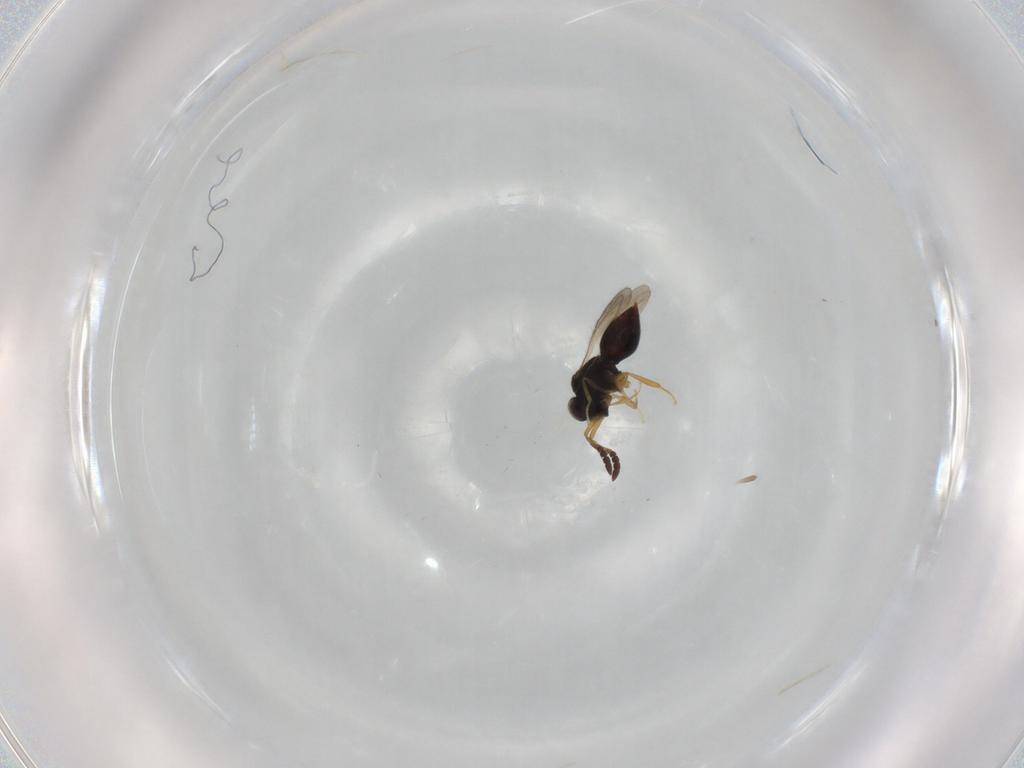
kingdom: Animalia
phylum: Arthropoda
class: Insecta
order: Hymenoptera
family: Ceraphronidae
